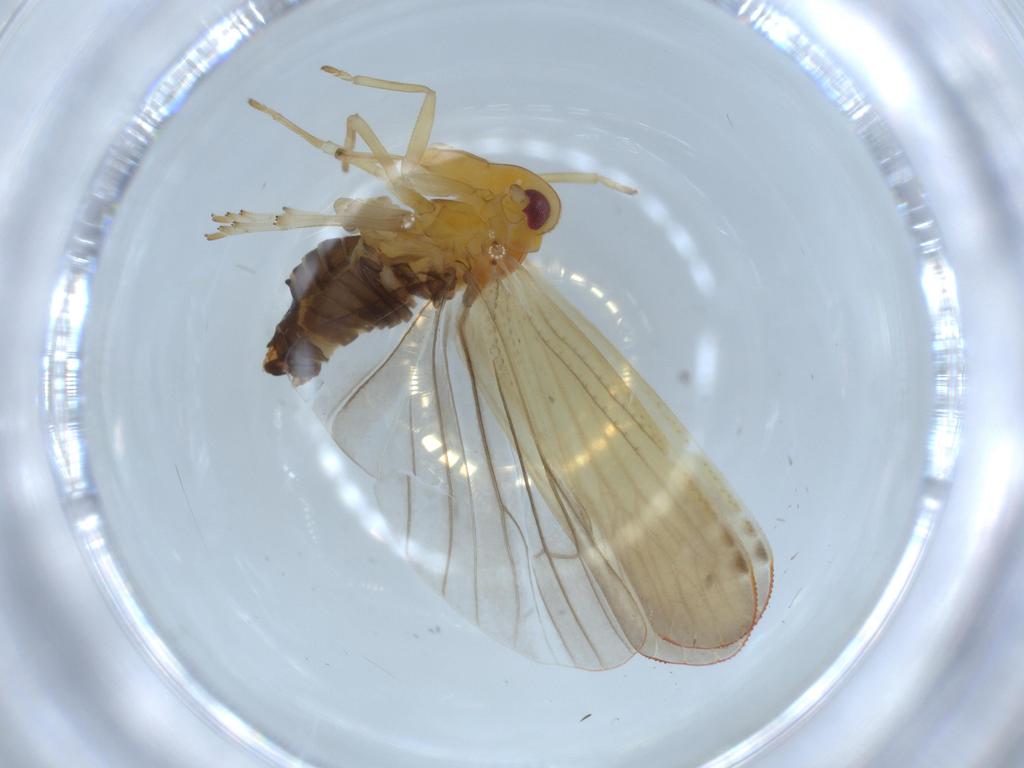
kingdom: Animalia
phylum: Arthropoda
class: Insecta
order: Hemiptera
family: Derbidae
